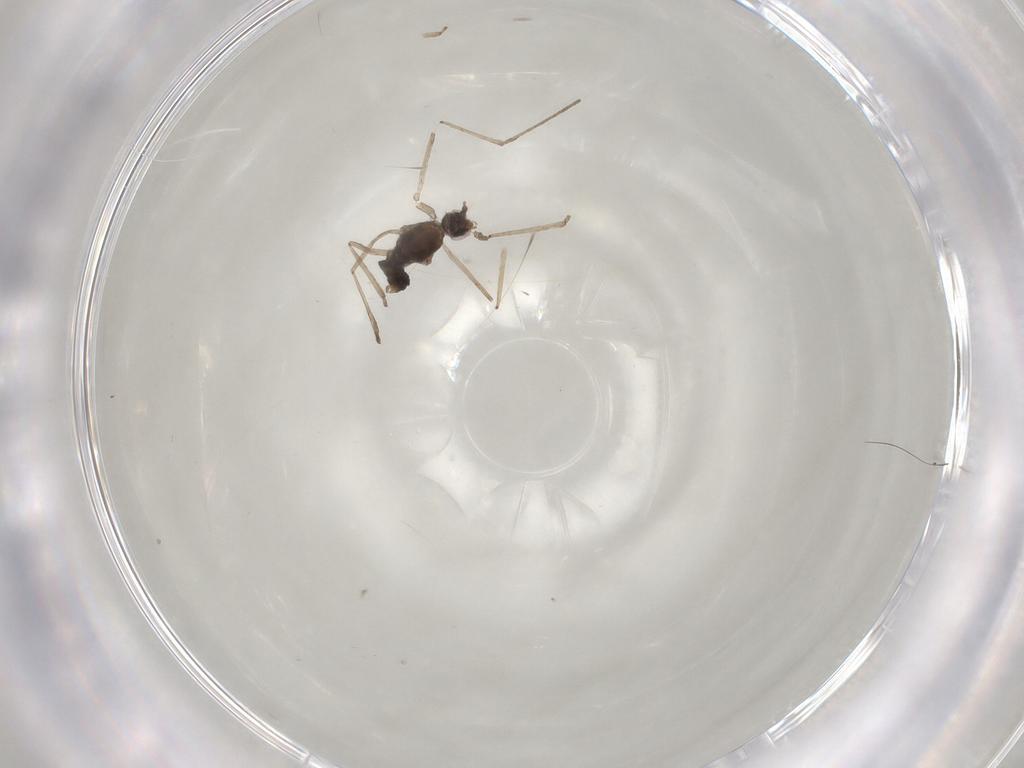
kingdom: Animalia
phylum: Arthropoda
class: Insecta
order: Diptera
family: Cecidomyiidae
